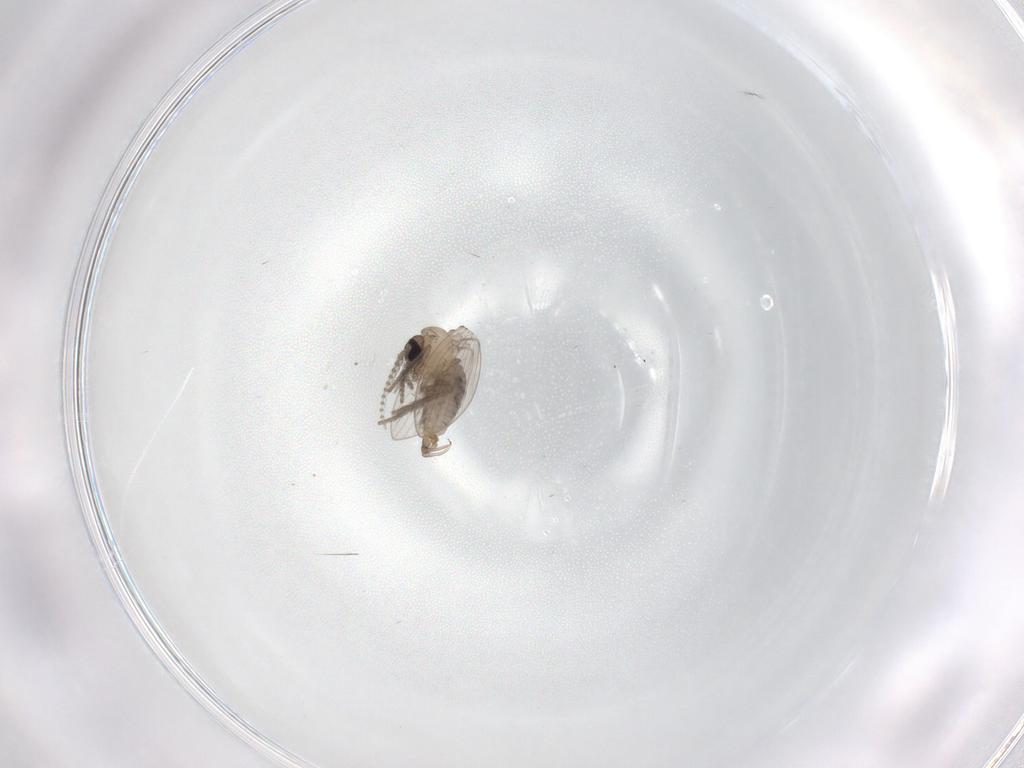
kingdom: Animalia
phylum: Arthropoda
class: Insecta
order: Diptera
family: Psychodidae
